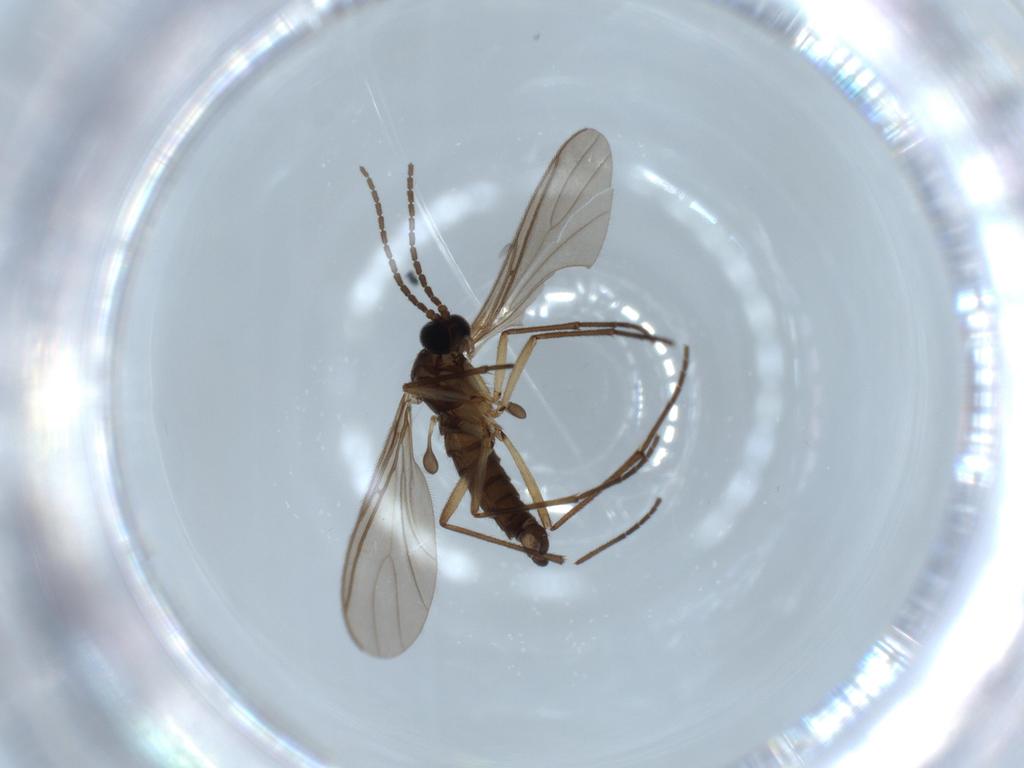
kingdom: Animalia
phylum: Arthropoda
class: Insecta
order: Diptera
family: Sciaridae
